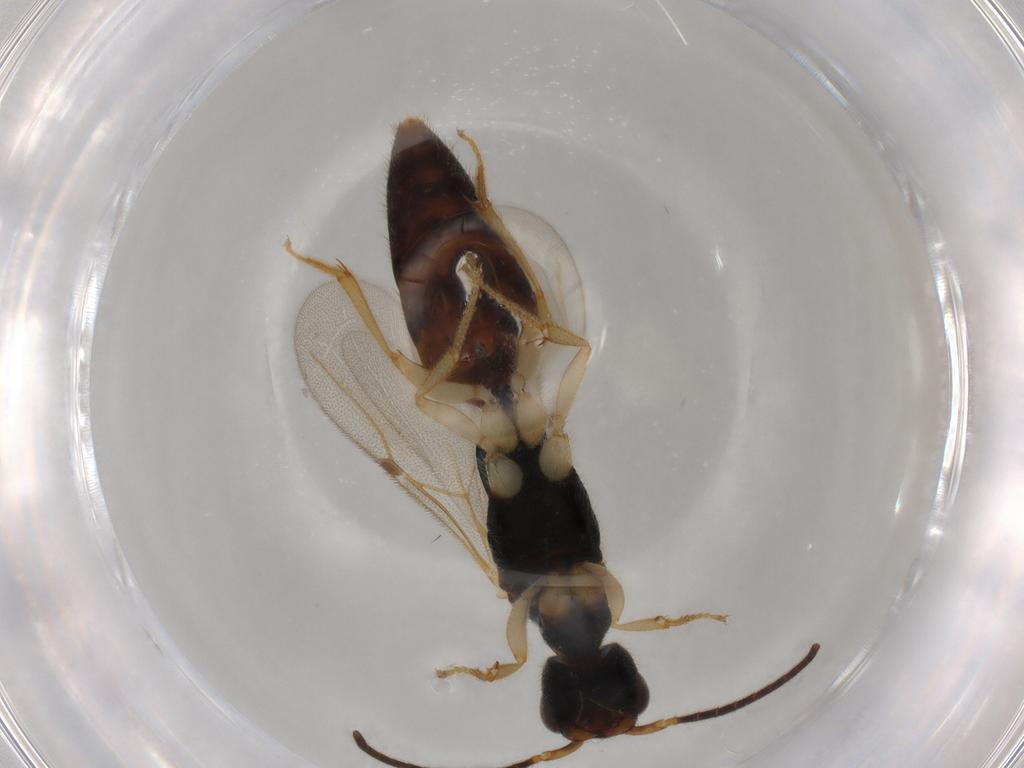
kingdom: Animalia
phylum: Arthropoda
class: Insecta
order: Hymenoptera
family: Bethylidae
